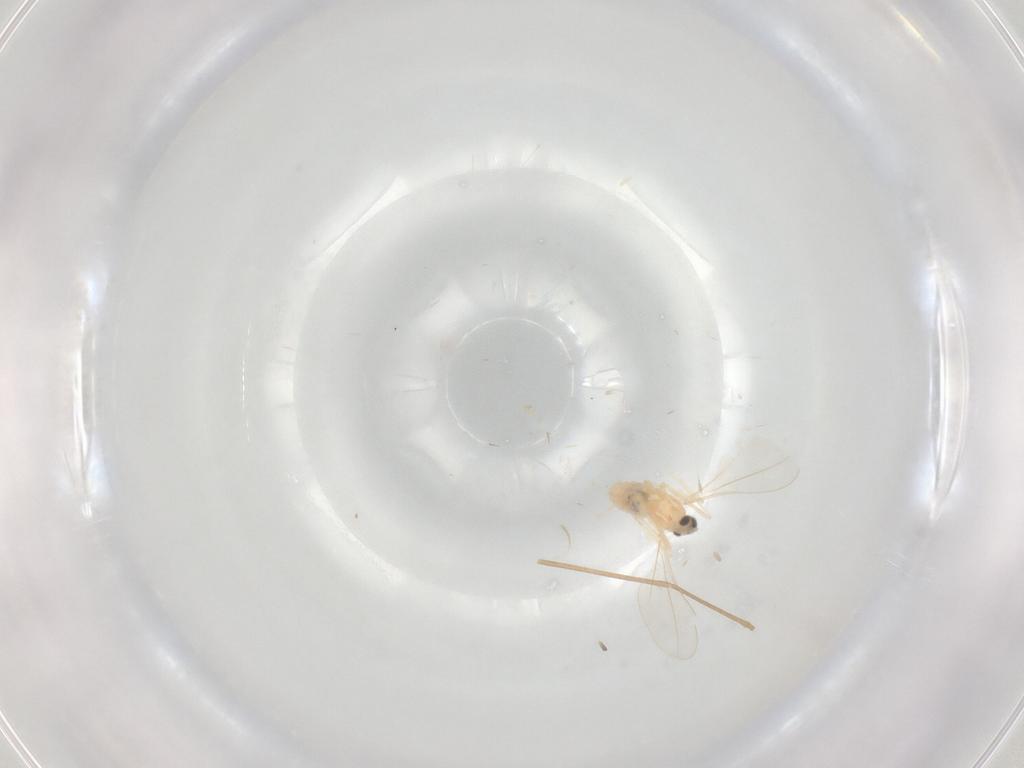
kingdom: Animalia
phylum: Arthropoda
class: Insecta
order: Diptera
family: Cecidomyiidae
